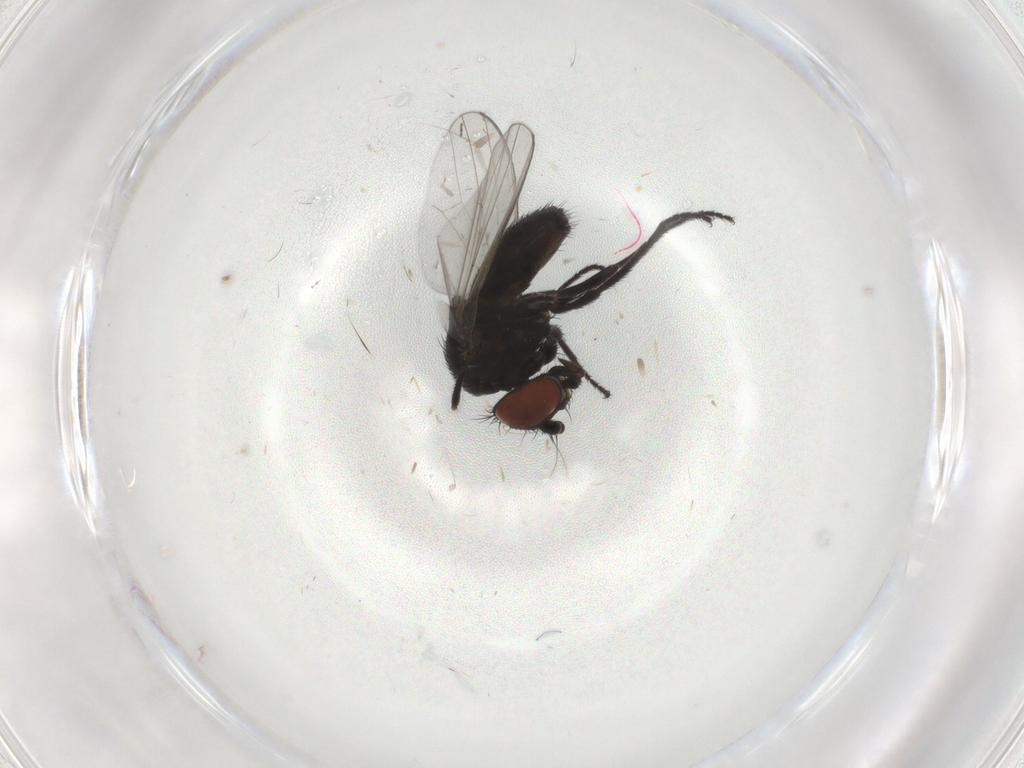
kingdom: Animalia
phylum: Arthropoda
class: Insecta
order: Diptera
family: Milichiidae
